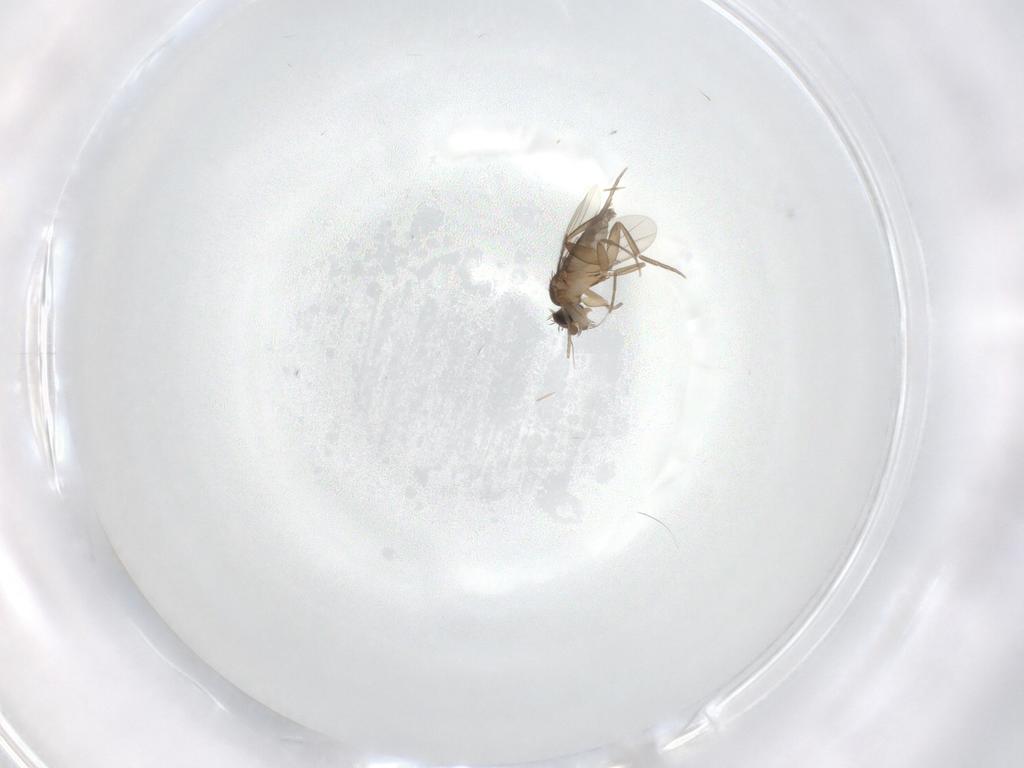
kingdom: Animalia
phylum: Arthropoda
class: Insecta
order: Diptera
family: Phoridae
